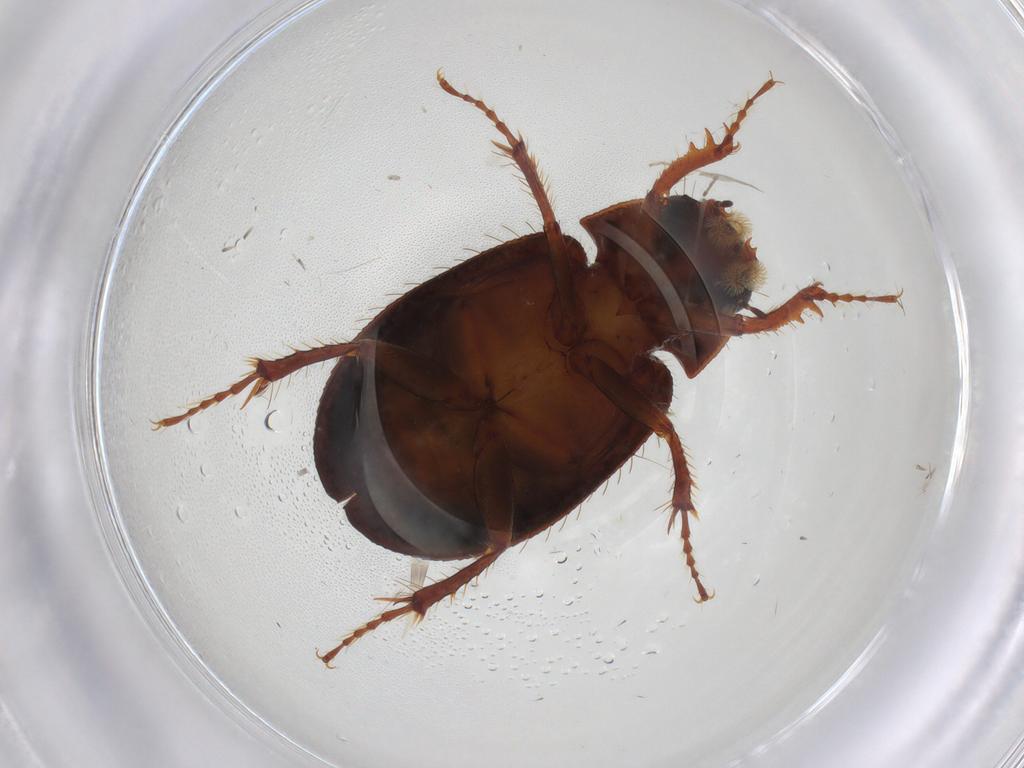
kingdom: Animalia
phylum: Arthropoda
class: Insecta
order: Coleoptera
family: Hybosoridae
